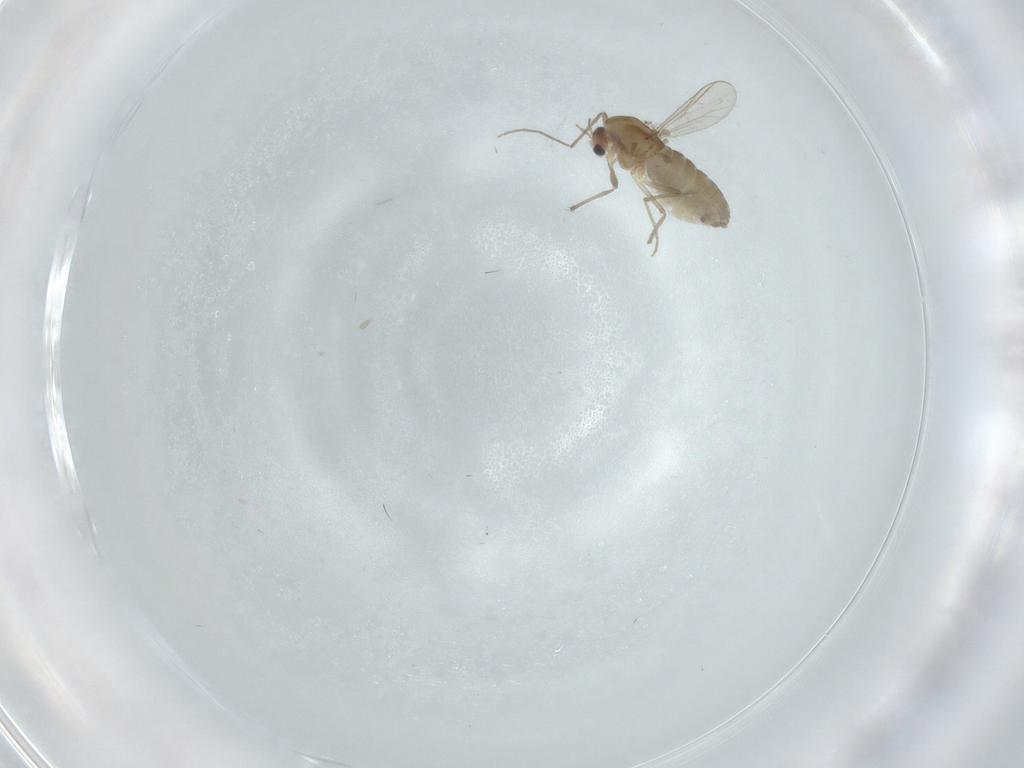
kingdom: Animalia
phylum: Arthropoda
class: Insecta
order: Diptera
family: Chironomidae
